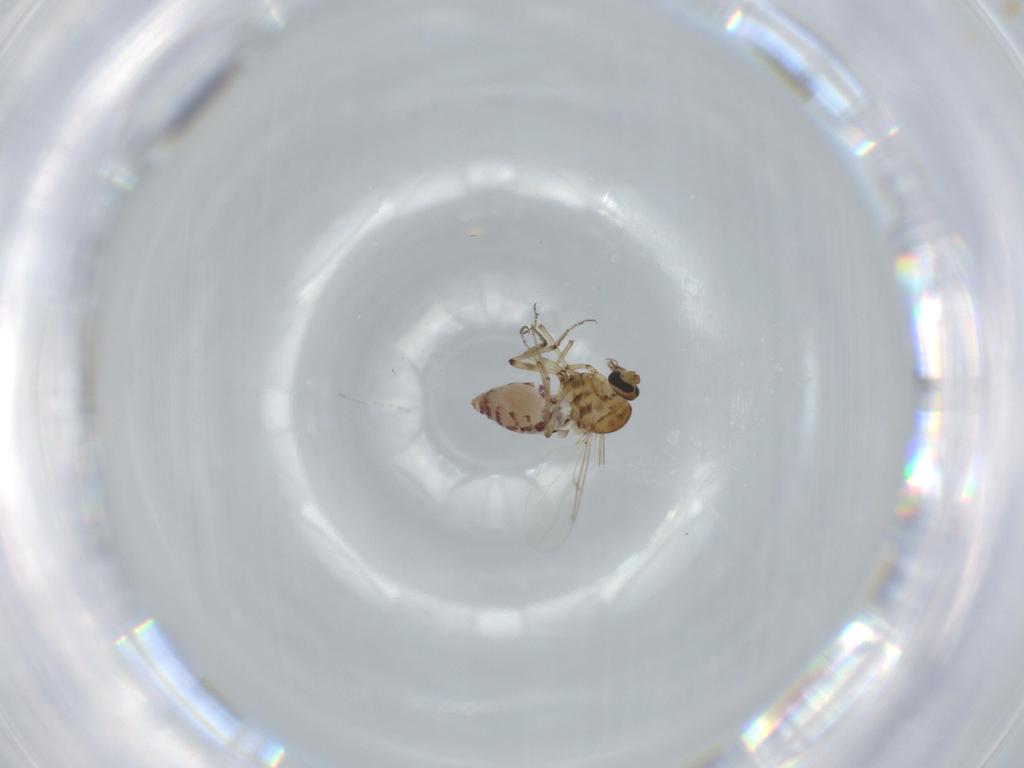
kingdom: Animalia
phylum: Arthropoda
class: Insecta
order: Diptera
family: Ceratopogonidae
